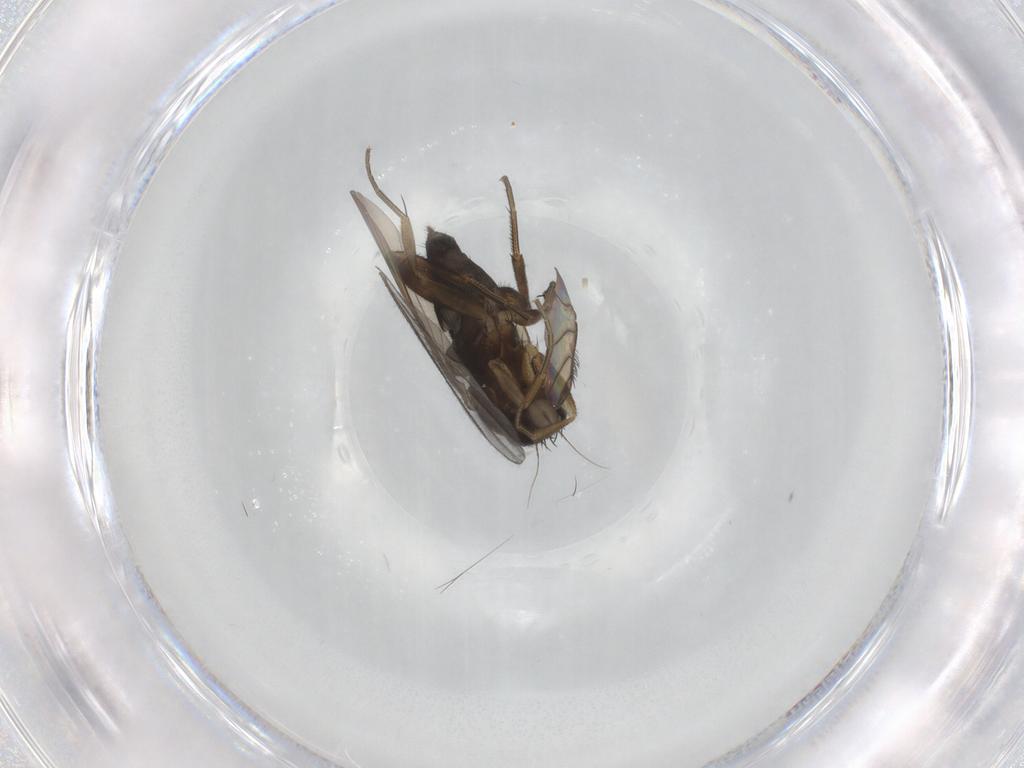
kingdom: Animalia
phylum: Arthropoda
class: Insecta
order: Diptera
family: Phoridae
